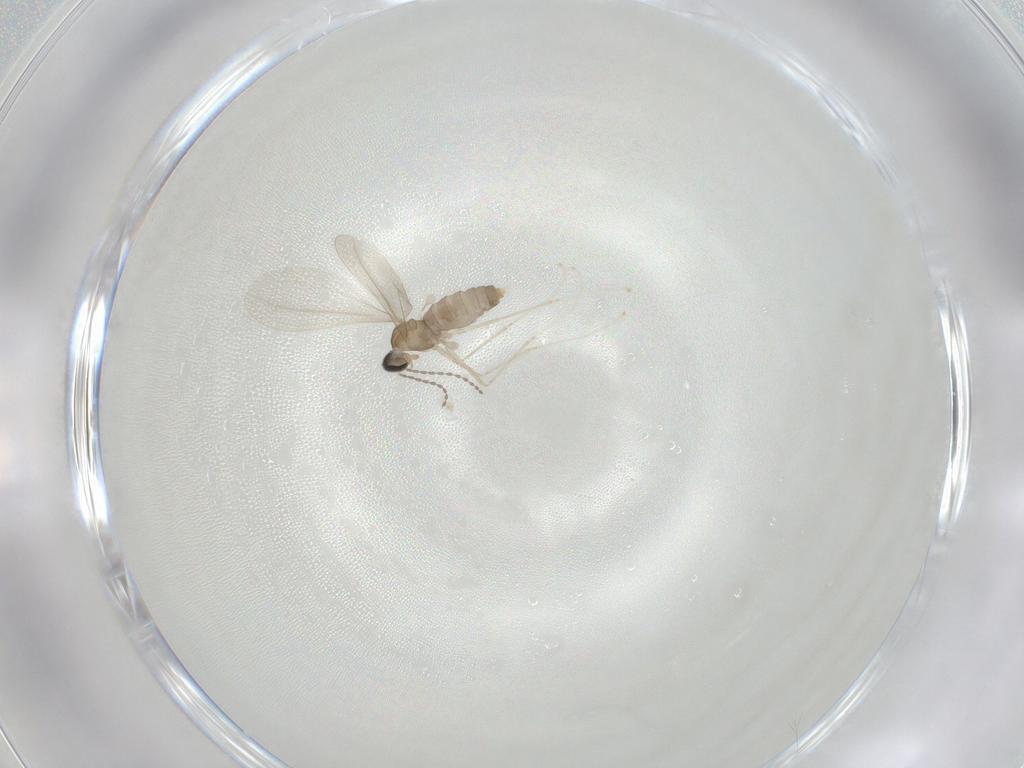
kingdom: Animalia
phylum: Arthropoda
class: Insecta
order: Diptera
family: Cecidomyiidae
